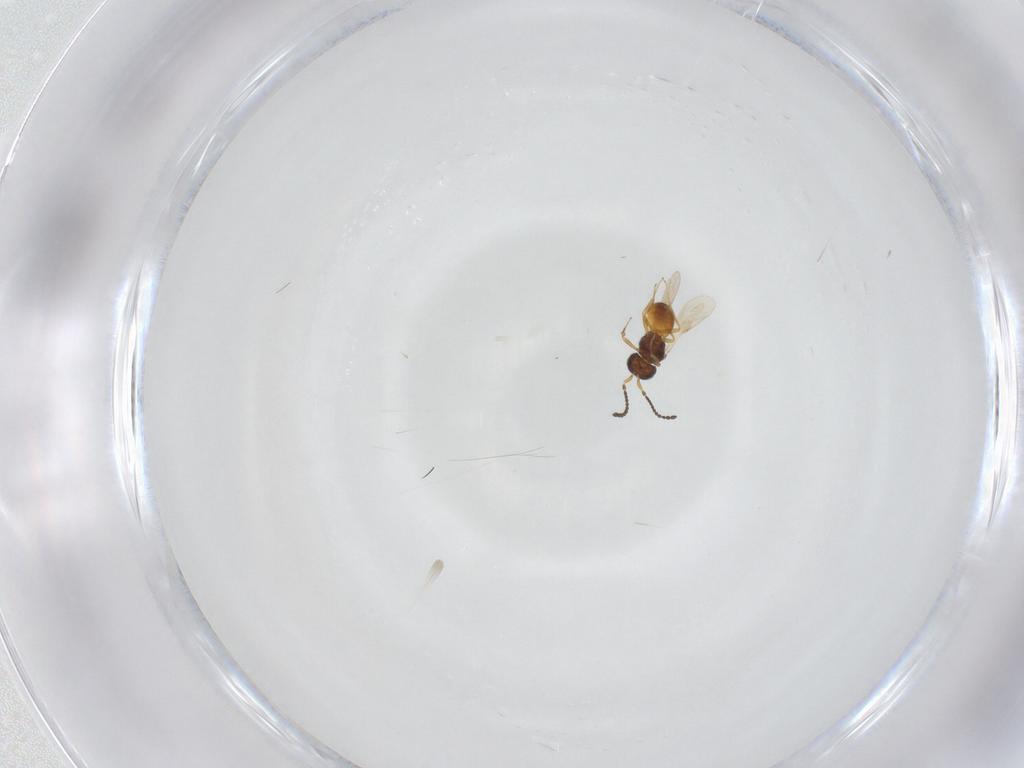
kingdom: Animalia
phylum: Arthropoda
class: Insecta
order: Hymenoptera
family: Scelionidae
